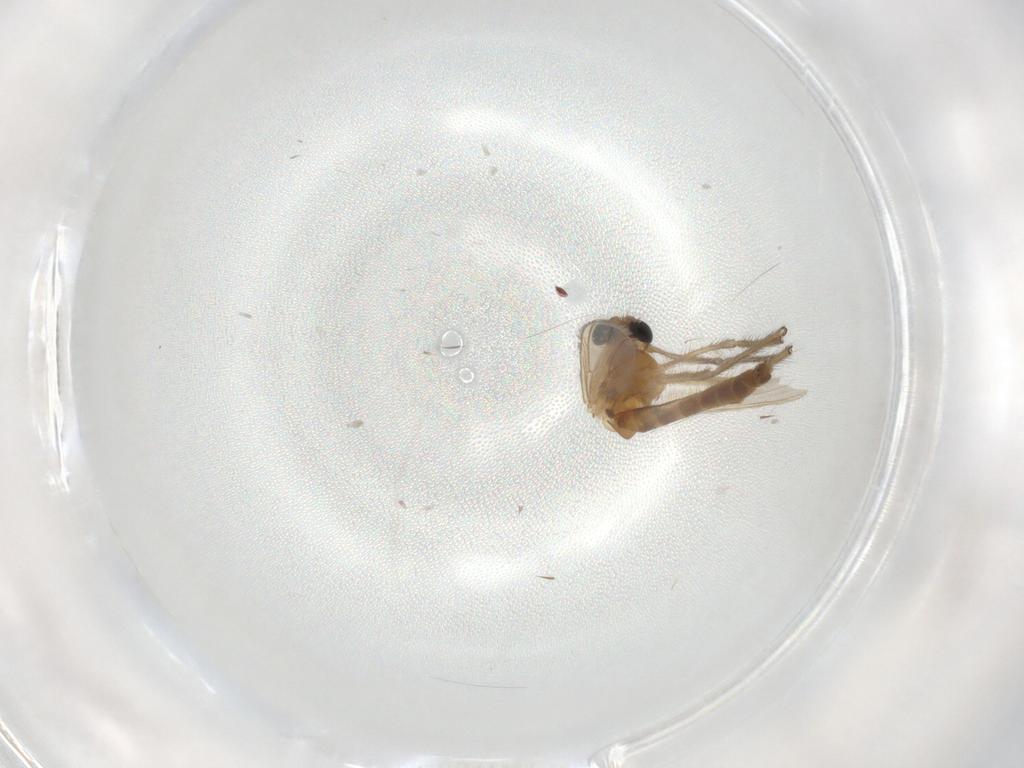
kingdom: Animalia
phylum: Arthropoda
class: Insecta
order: Diptera
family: Chironomidae
